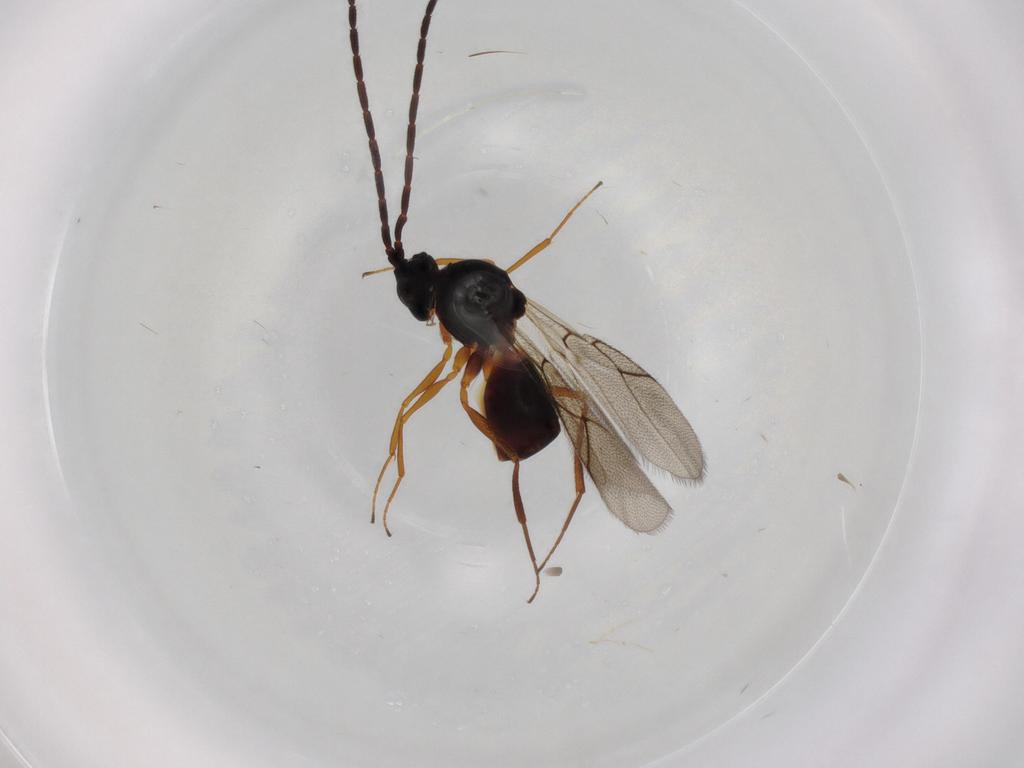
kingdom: Animalia
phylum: Arthropoda
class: Insecta
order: Hymenoptera
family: Figitidae
